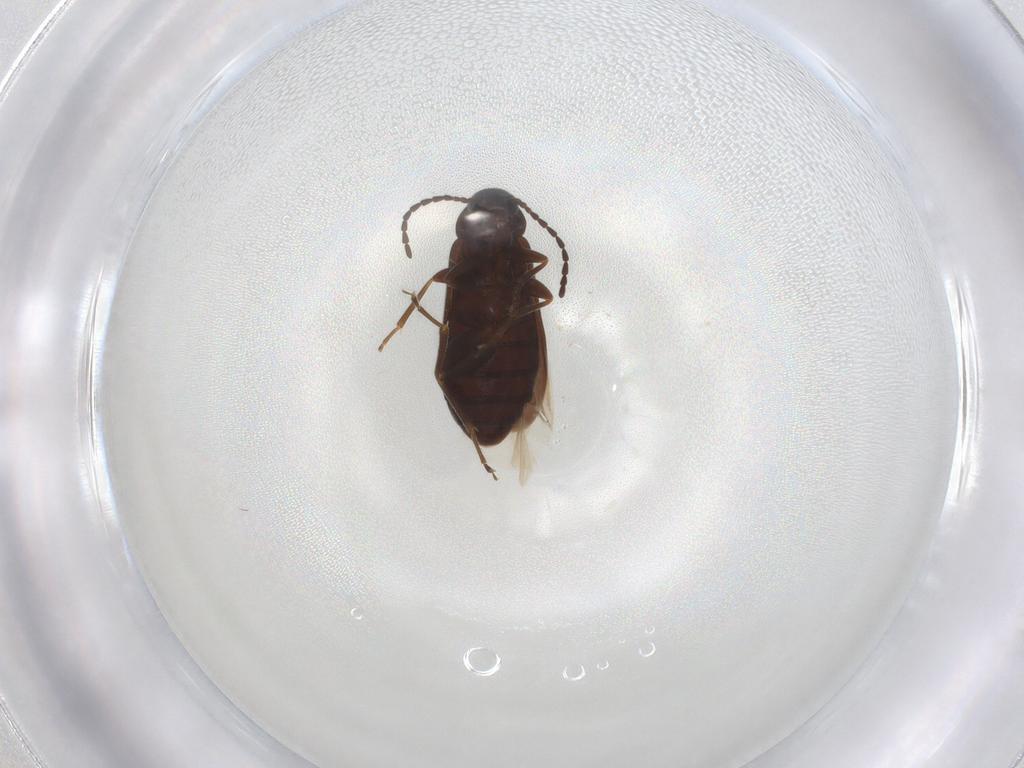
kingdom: Animalia
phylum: Arthropoda
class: Insecta
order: Coleoptera
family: Scraptiidae
